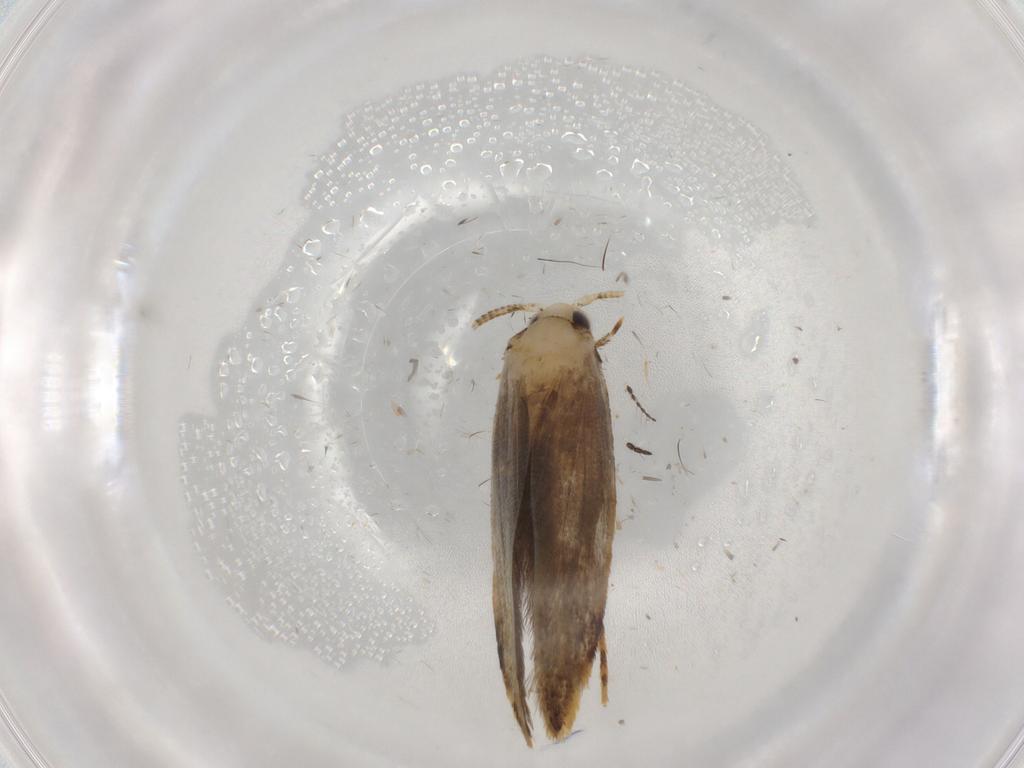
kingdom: Animalia
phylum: Arthropoda
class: Insecta
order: Lepidoptera
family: Tineidae
